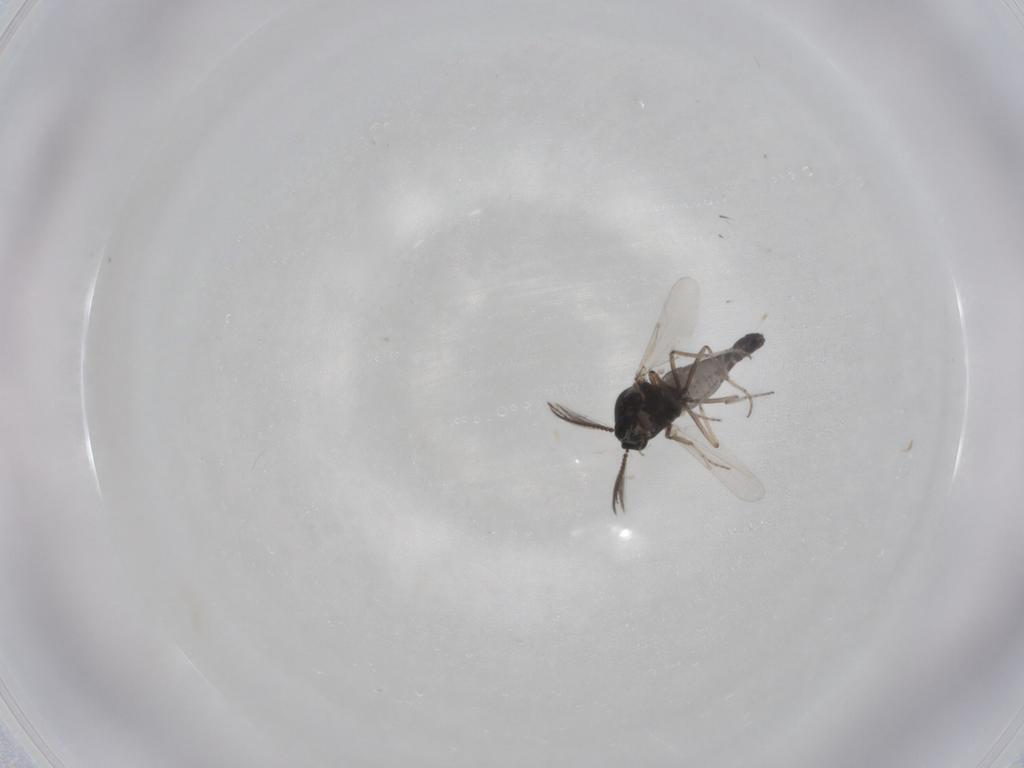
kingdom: Animalia
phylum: Arthropoda
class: Insecta
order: Diptera
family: Ceratopogonidae
